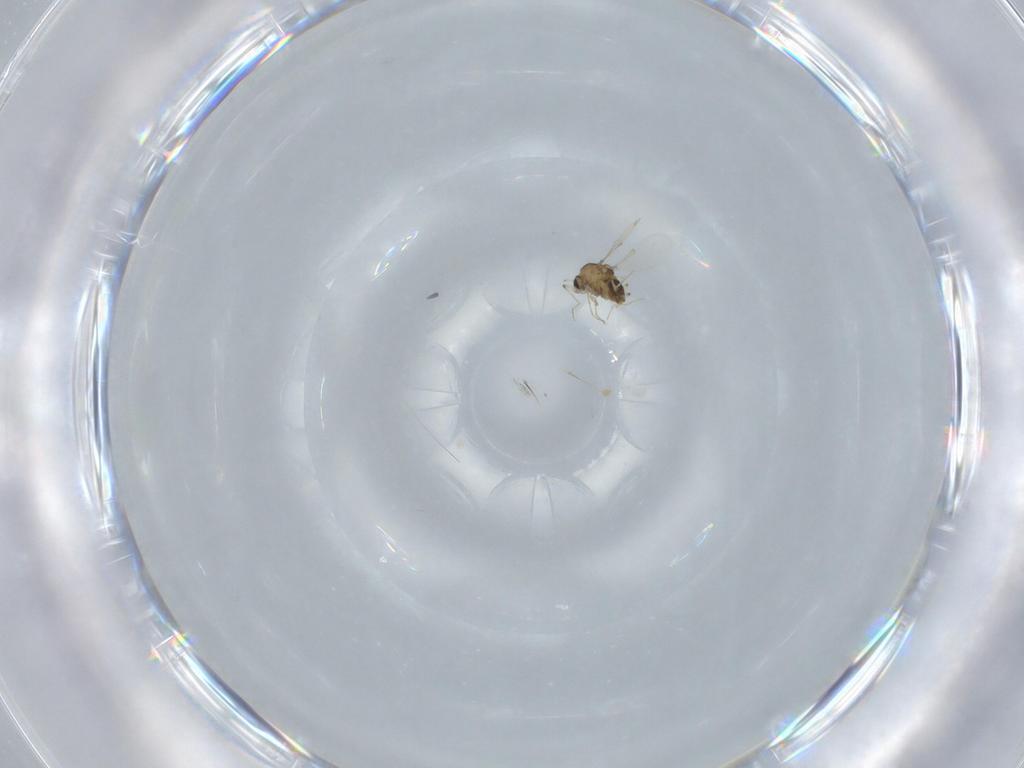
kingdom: Animalia
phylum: Arthropoda
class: Insecta
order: Diptera
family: Chironomidae
